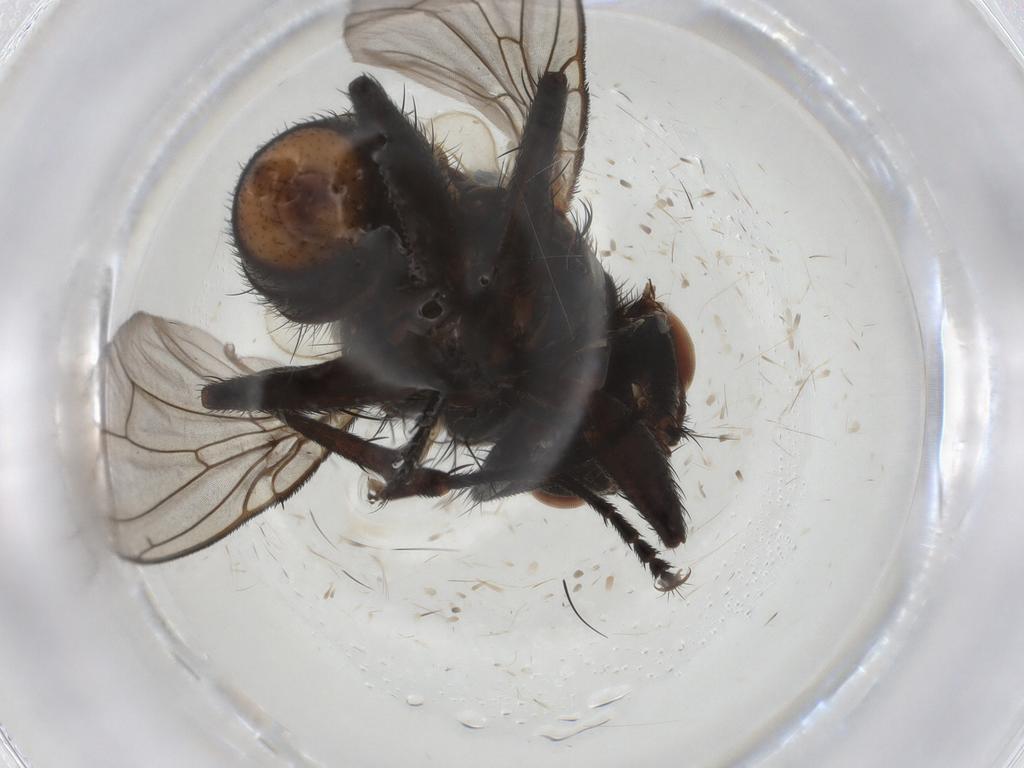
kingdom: Animalia
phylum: Arthropoda
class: Insecta
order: Diptera
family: Sarcophagidae
